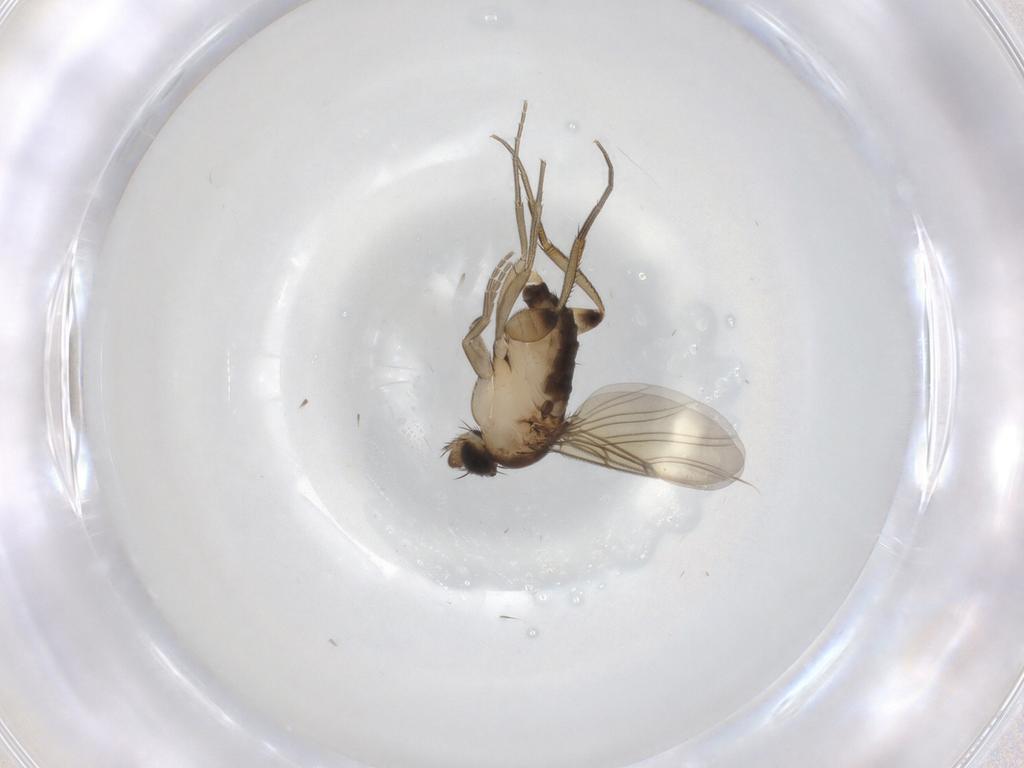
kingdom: Animalia
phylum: Arthropoda
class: Insecta
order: Diptera
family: Phoridae
